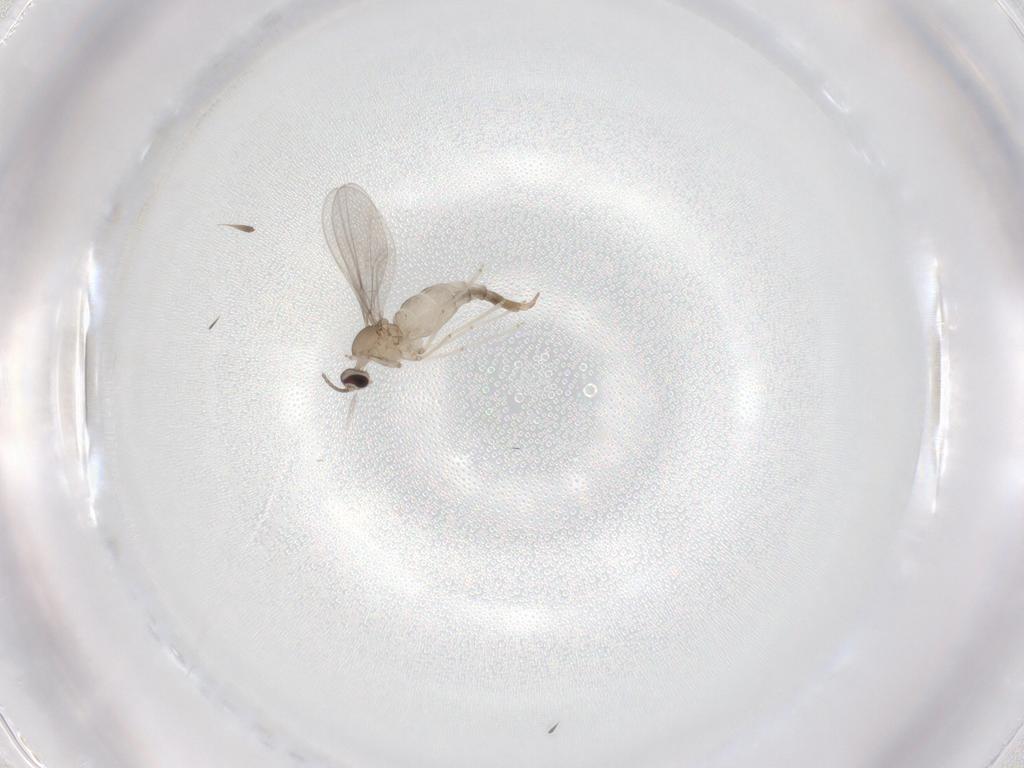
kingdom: Animalia
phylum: Arthropoda
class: Insecta
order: Diptera
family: Cecidomyiidae
